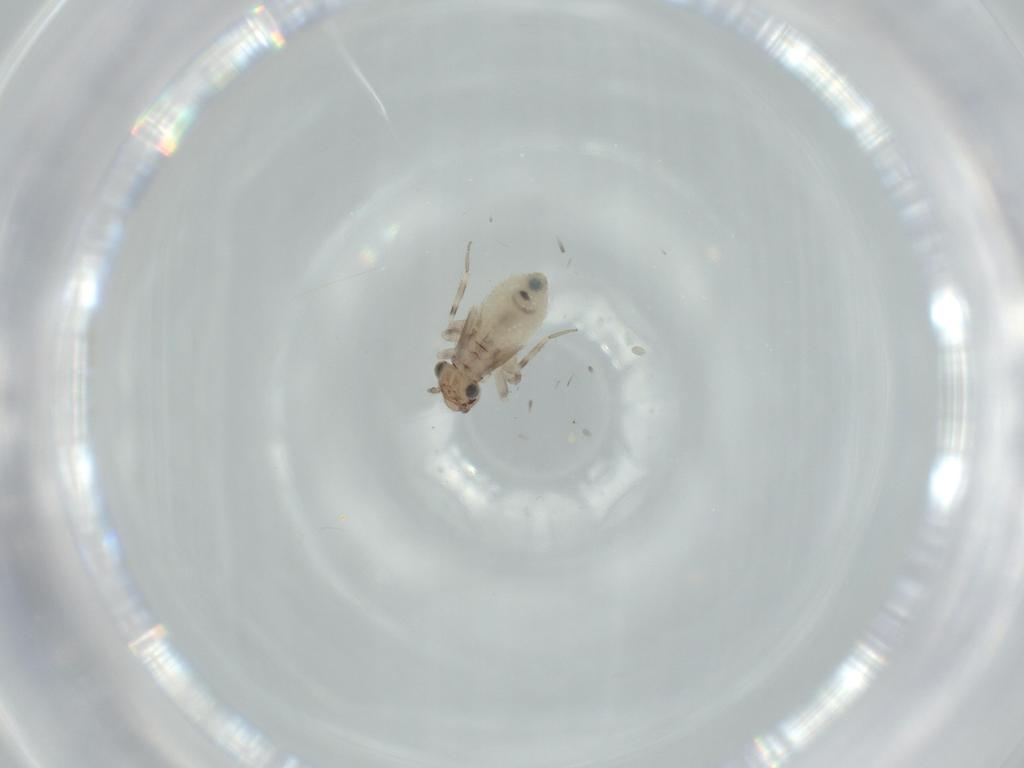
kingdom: Animalia
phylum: Arthropoda
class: Insecta
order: Psocodea
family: Lepidopsocidae
